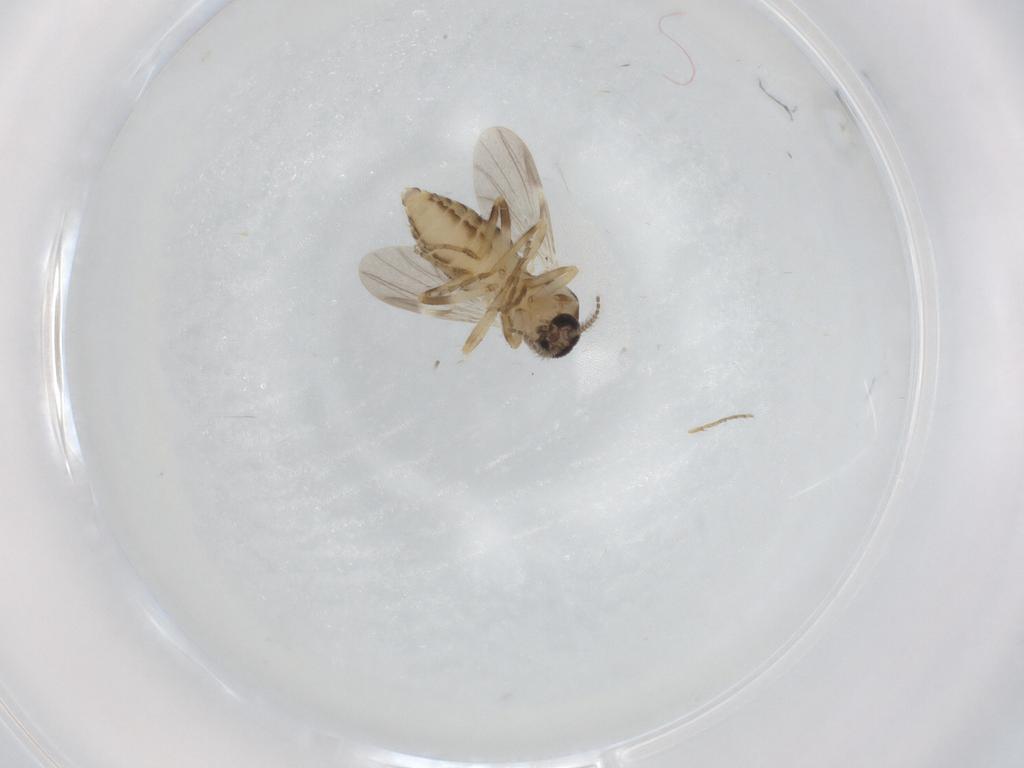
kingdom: Animalia
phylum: Arthropoda
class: Insecta
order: Diptera
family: Ceratopogonidae
